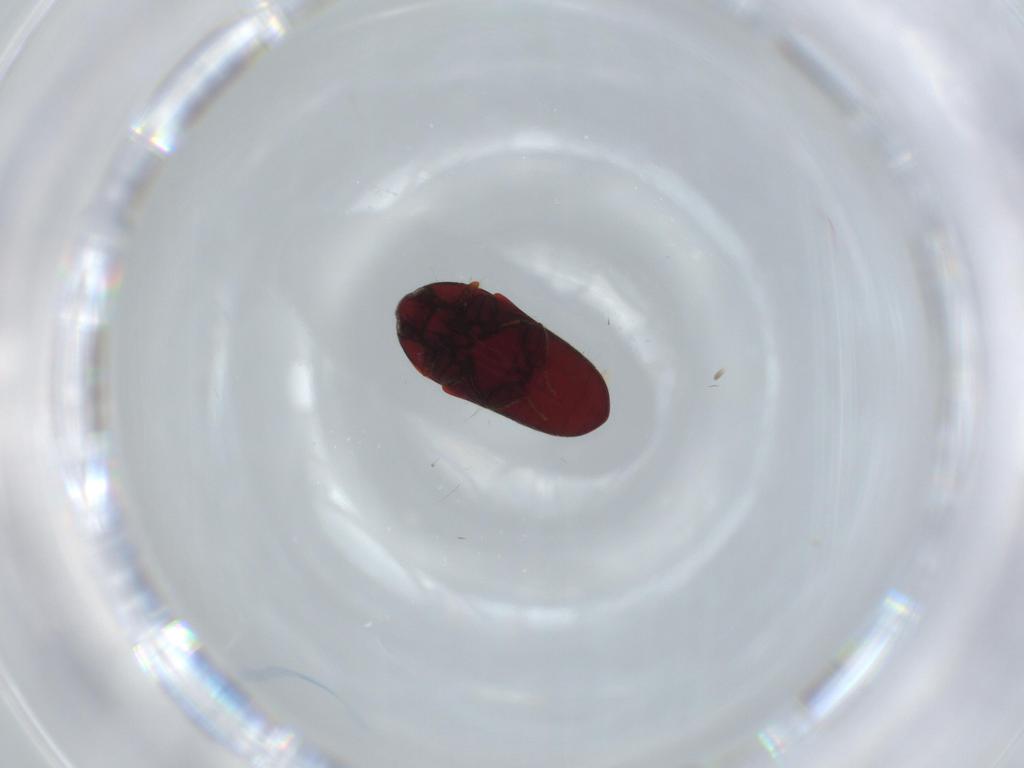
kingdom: Animalia
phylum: Arthropoda
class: Insecta
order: Coleoptera
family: Throscidae
